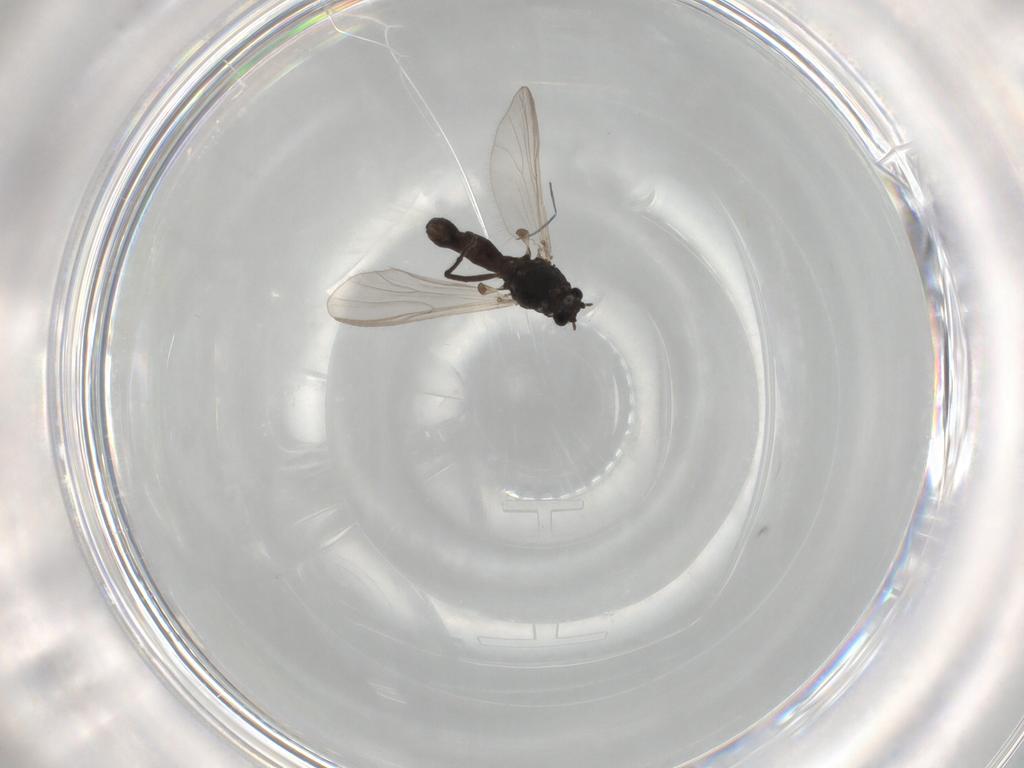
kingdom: Animalia
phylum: Arthropoda
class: Insecta
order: Diptera
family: Chironomidae
